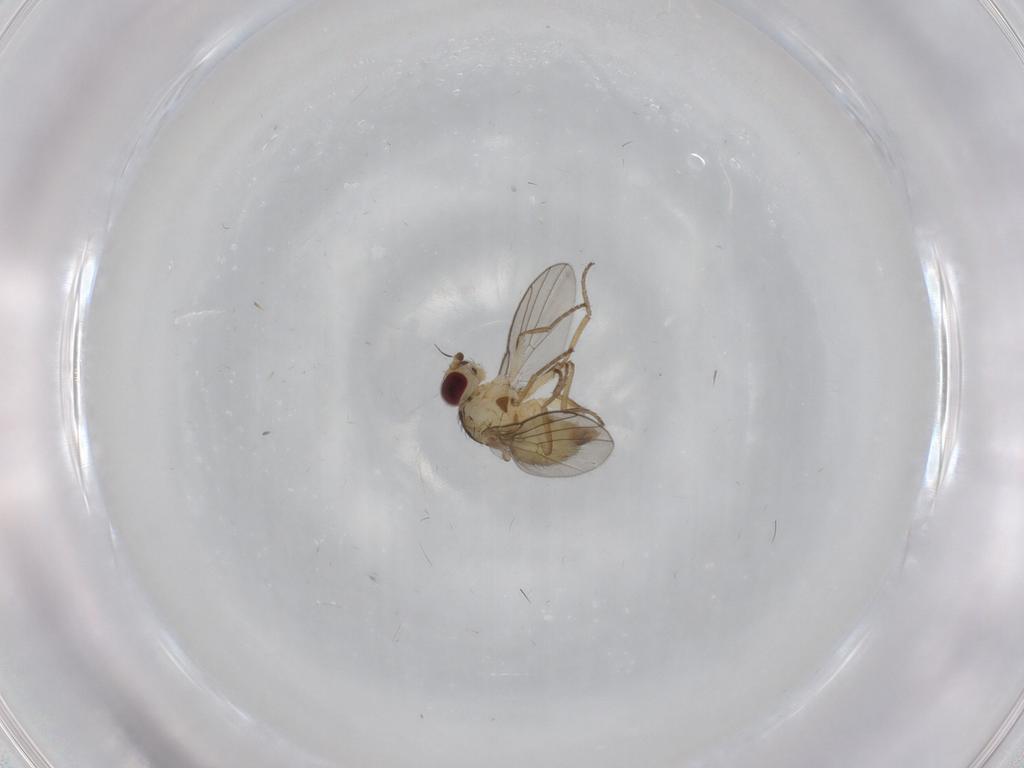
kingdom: Animalia
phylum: Arthropoda
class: Insecta
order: Diptera
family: Agromyzidae
